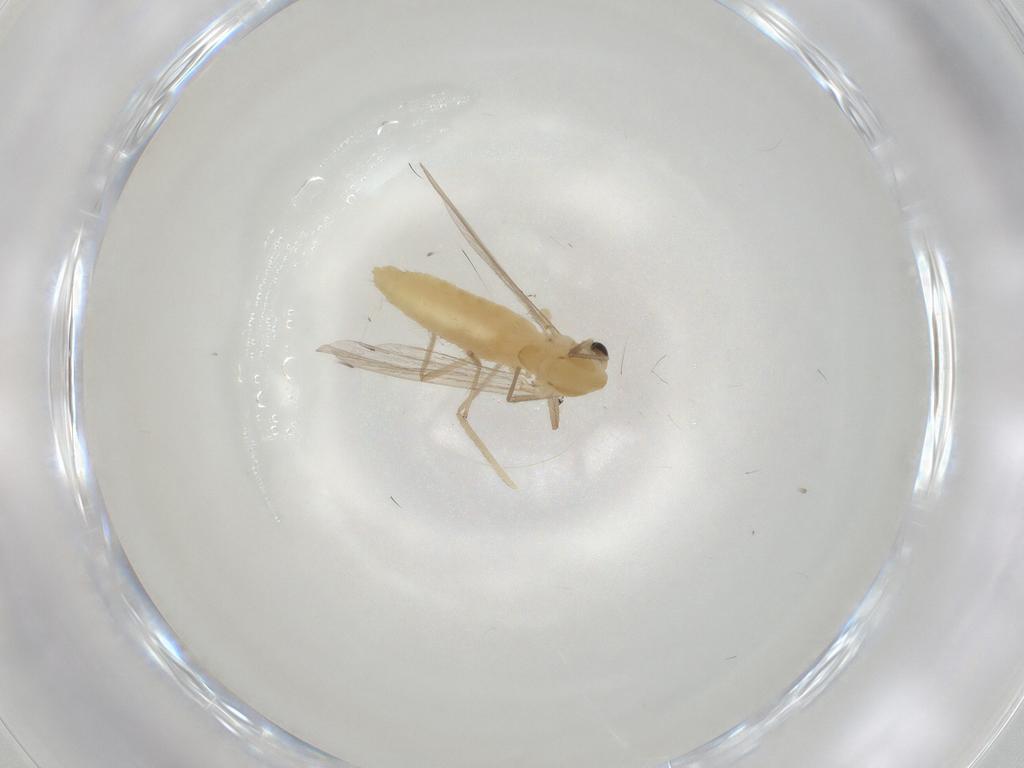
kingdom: Animalia
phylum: Arthropoda
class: Insecta
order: Diptera
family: Chironomidae
